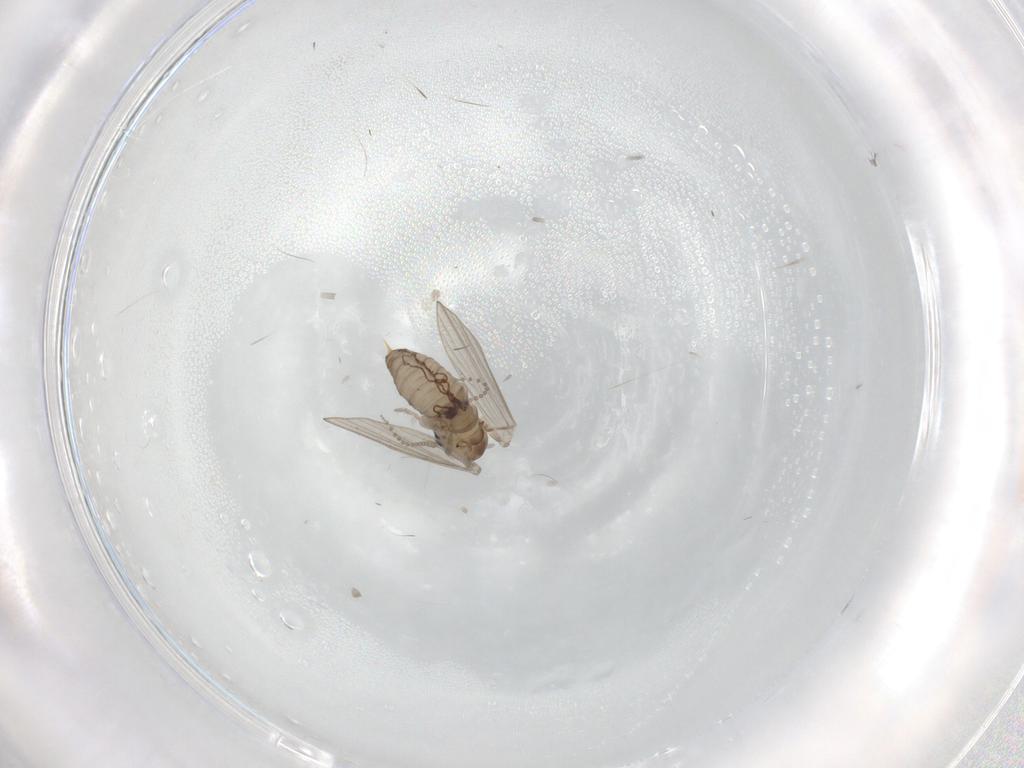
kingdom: Animalia
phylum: Arthropoda
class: Insecta
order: Diptera
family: Psychodidae
